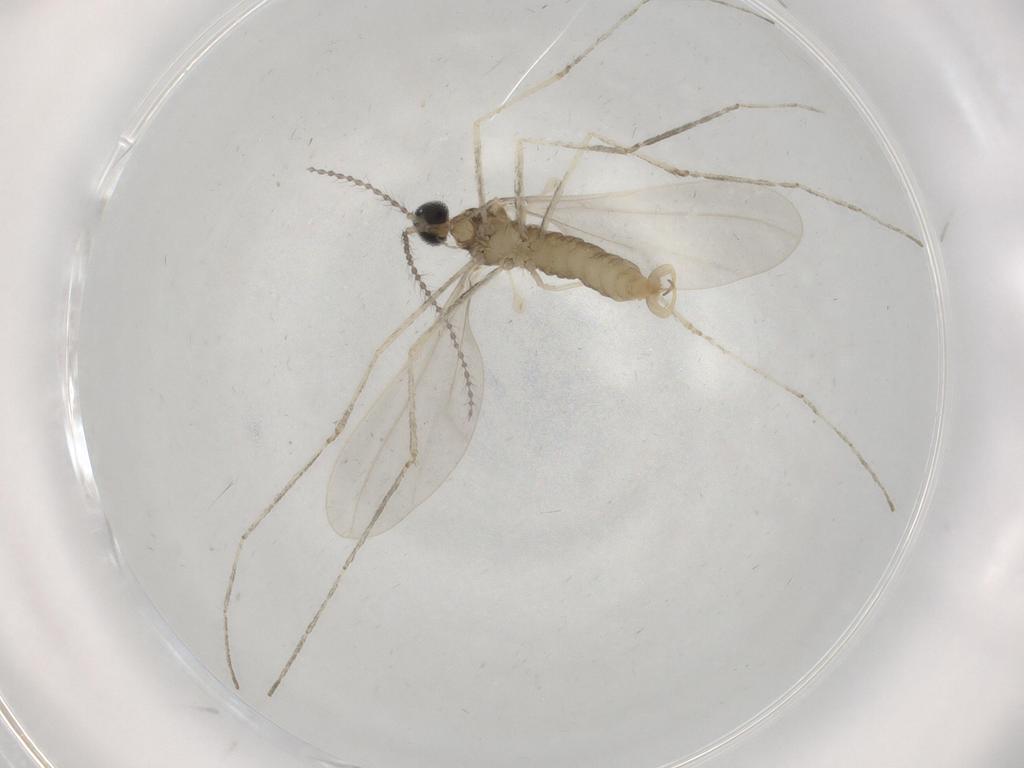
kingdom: Animalia
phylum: Arthropoda
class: Insecta
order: Diptera
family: Cecidomyiidae
